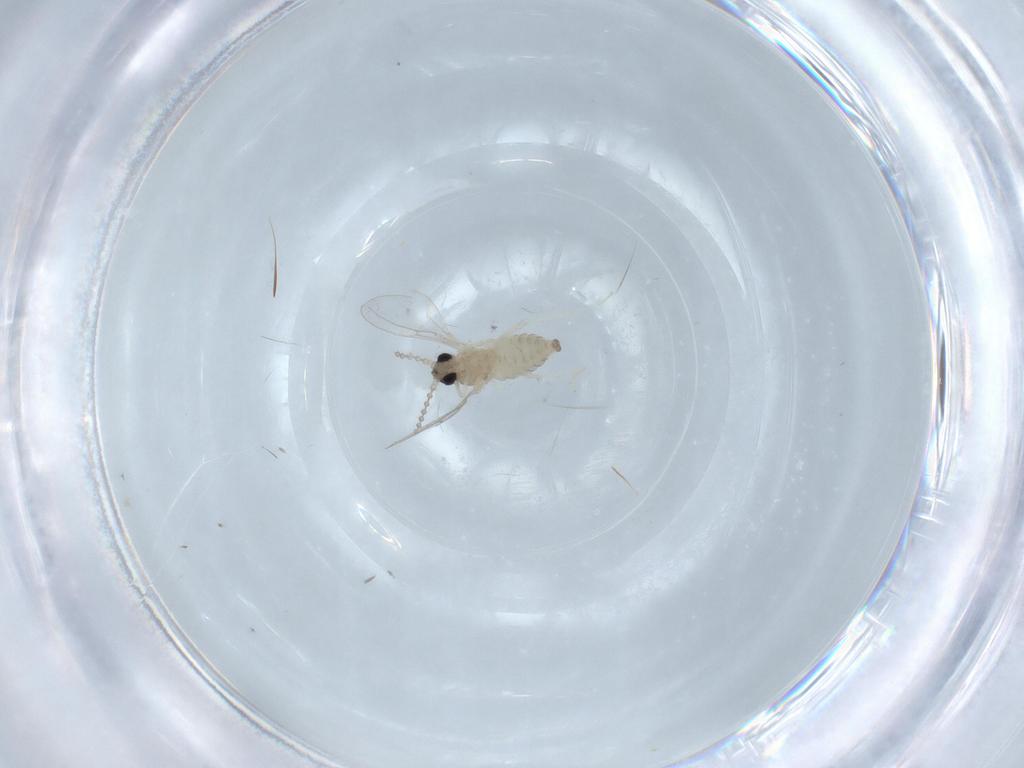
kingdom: Animalia
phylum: Arthropoda
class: Insecta
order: Diptera
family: Cecidomyiidae
